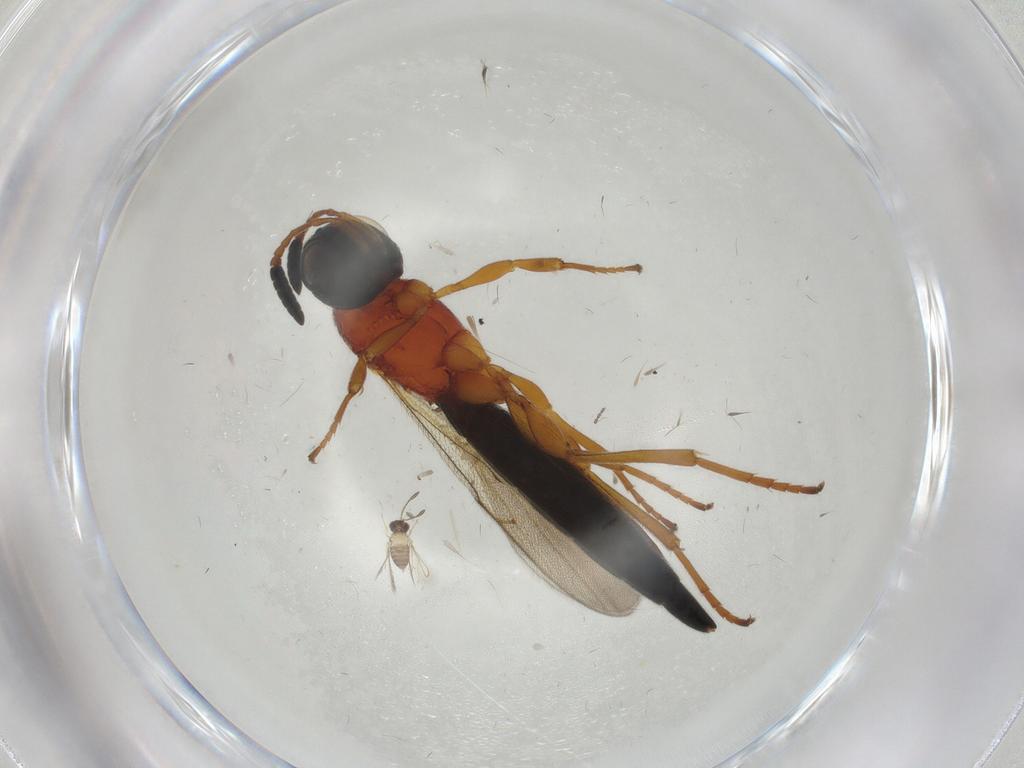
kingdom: Animalia
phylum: Arthropoda
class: Insecta
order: Hymenoptera
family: Scelionidae
